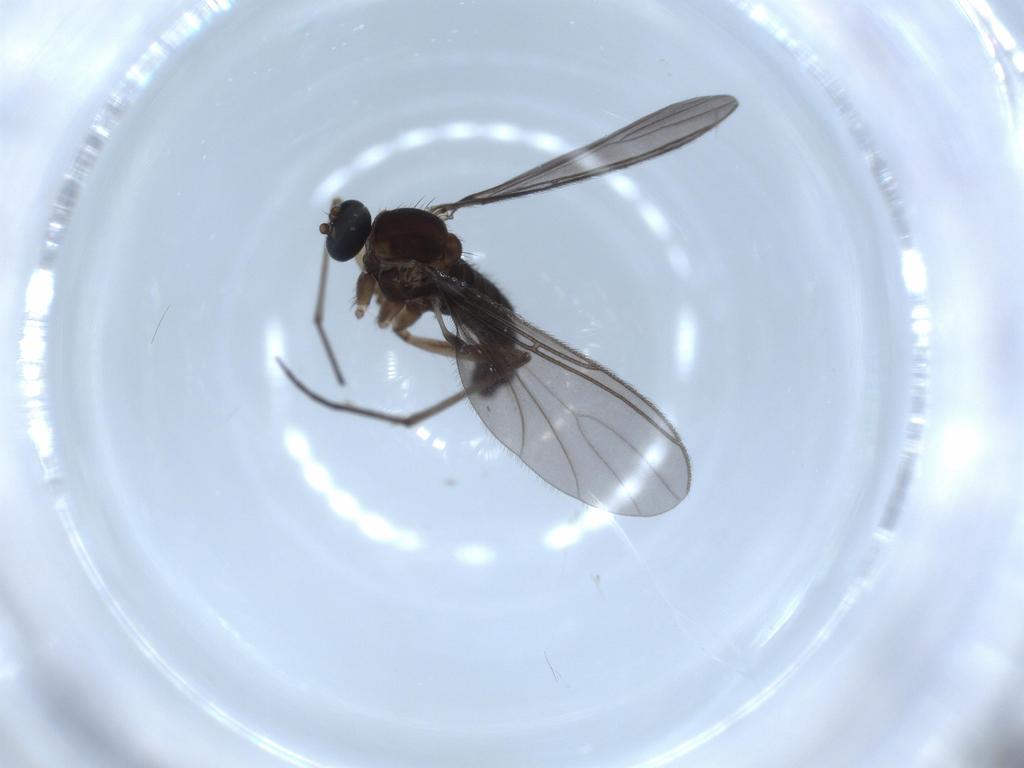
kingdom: Animalia
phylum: Arthropoda
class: Insecta
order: Diptera
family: Sciaridae
